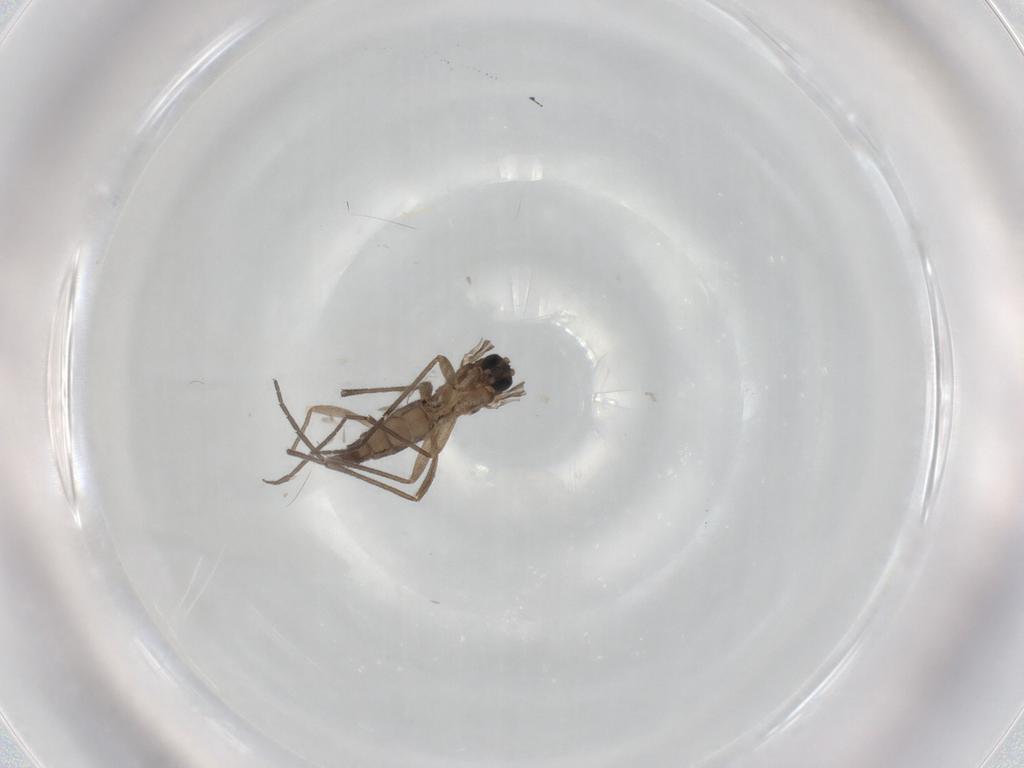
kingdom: Animalia
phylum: Arthropoda
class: Insecta
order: Diptera
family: Sciaridae
